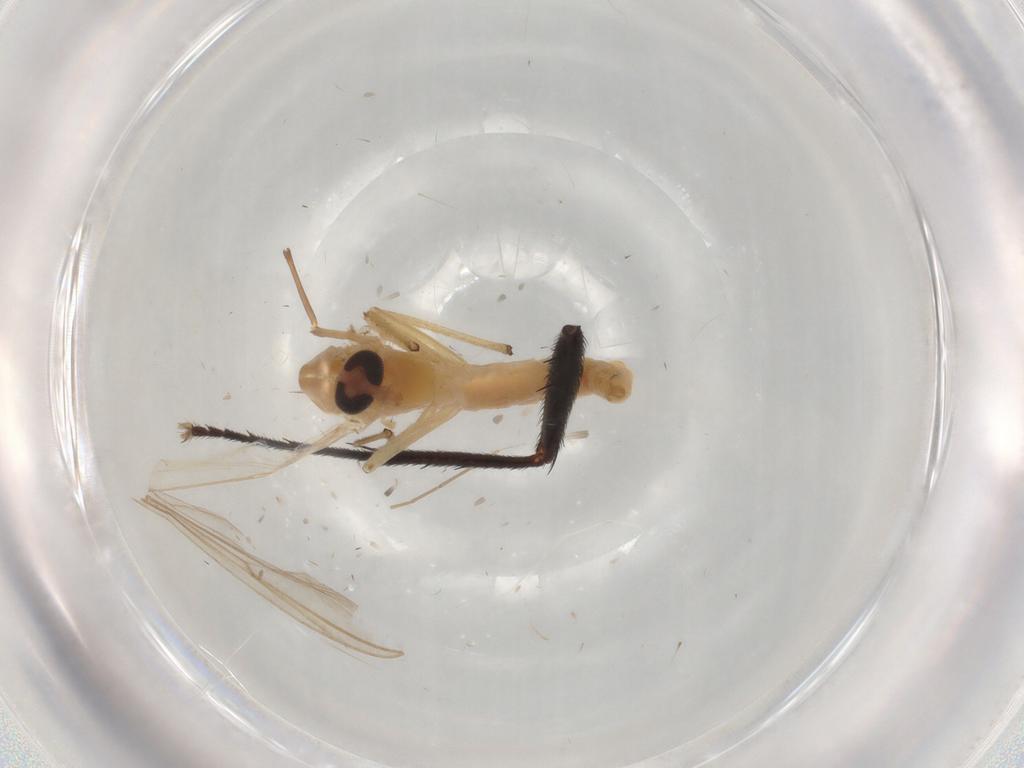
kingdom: Animalia
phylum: Arthropoda
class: Insecta
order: Diptera
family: Chironomidae
